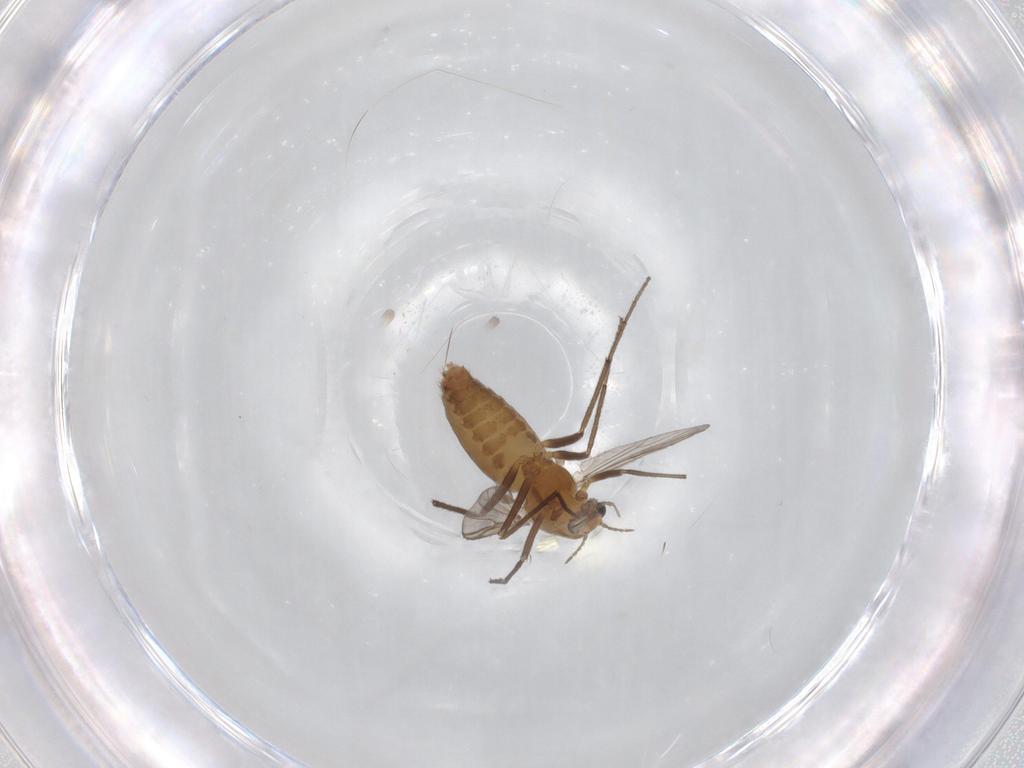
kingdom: Animalia
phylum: Arthropoda
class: Insecta
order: Diptera
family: Chironomidae
